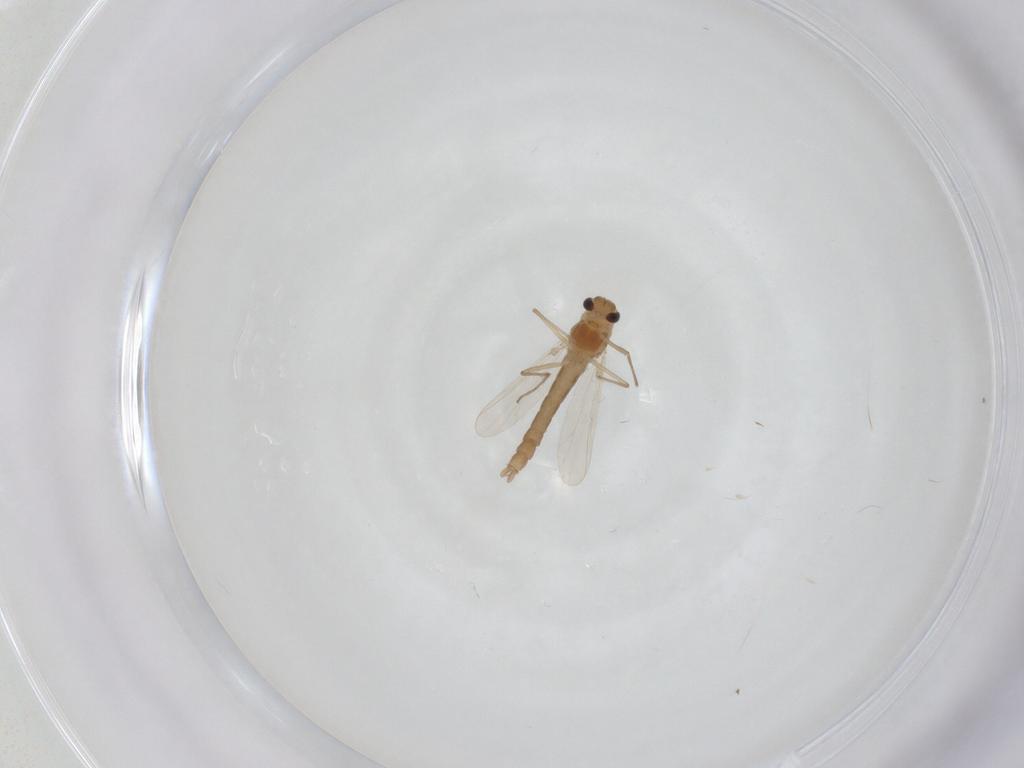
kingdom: Animalia
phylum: Arthropoda
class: Insecta
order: Diptera
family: Chironomidae
